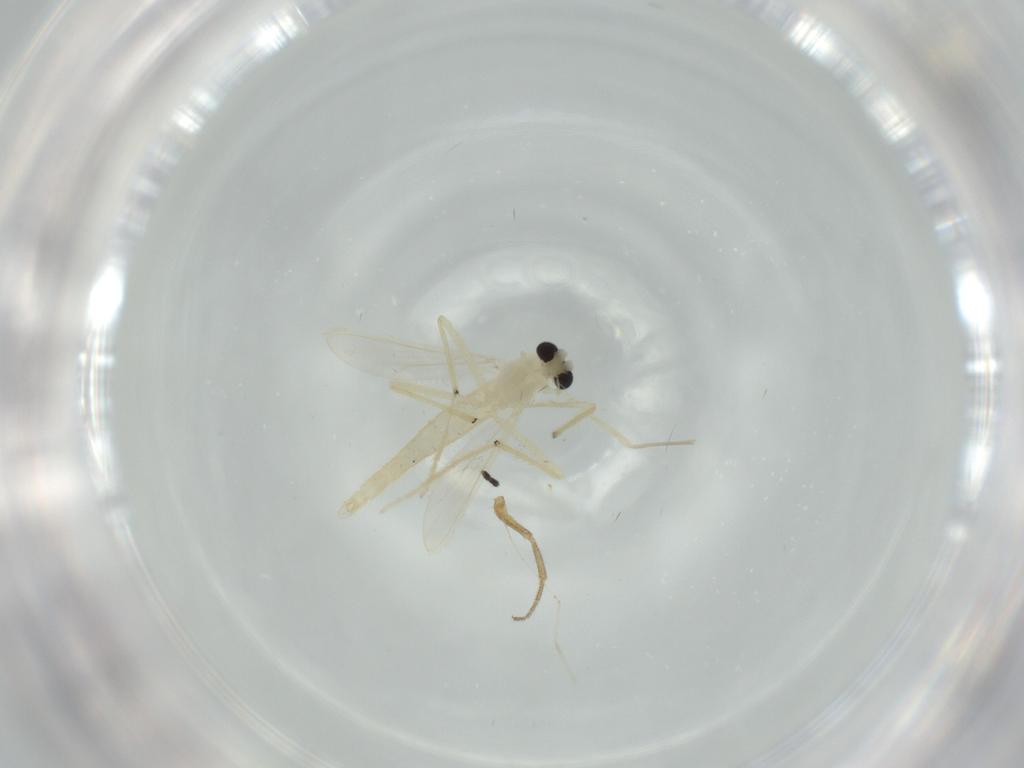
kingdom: Animalia
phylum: Arthropoda
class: Insecta
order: Diptera
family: Chironomidae
